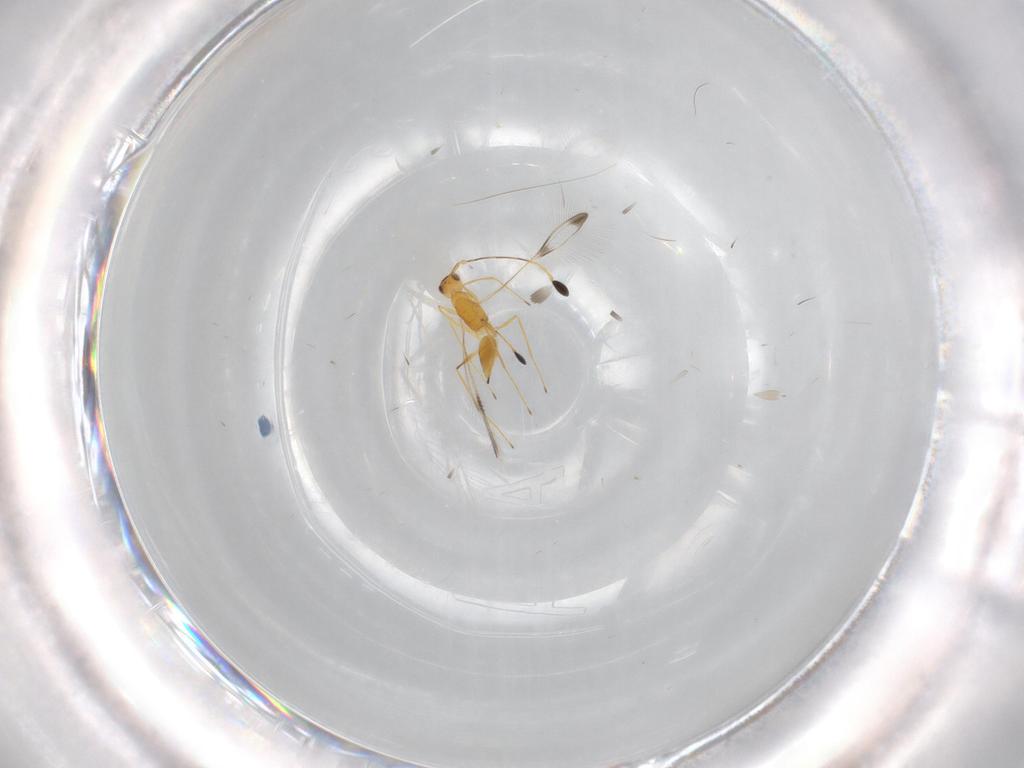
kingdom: Animalia
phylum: Arthropoda
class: Insecta
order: Hymenoptera
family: Mymaridae
